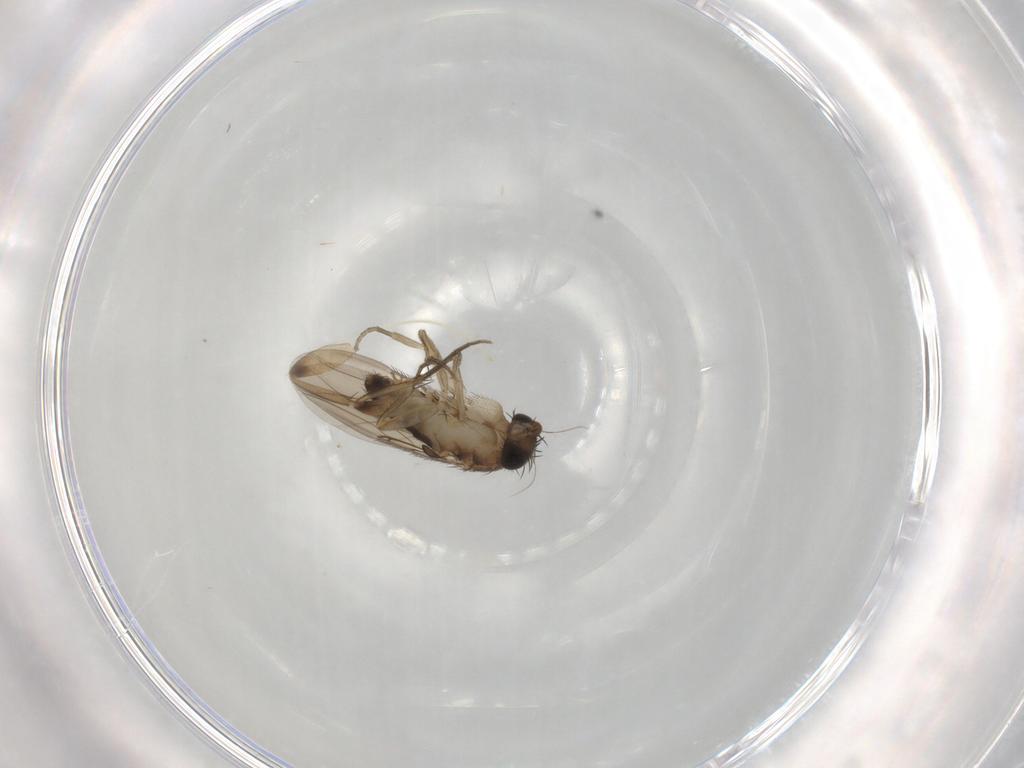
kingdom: Animalia
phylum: Arthropoda
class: Insecta
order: Diptera
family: Phoridae
